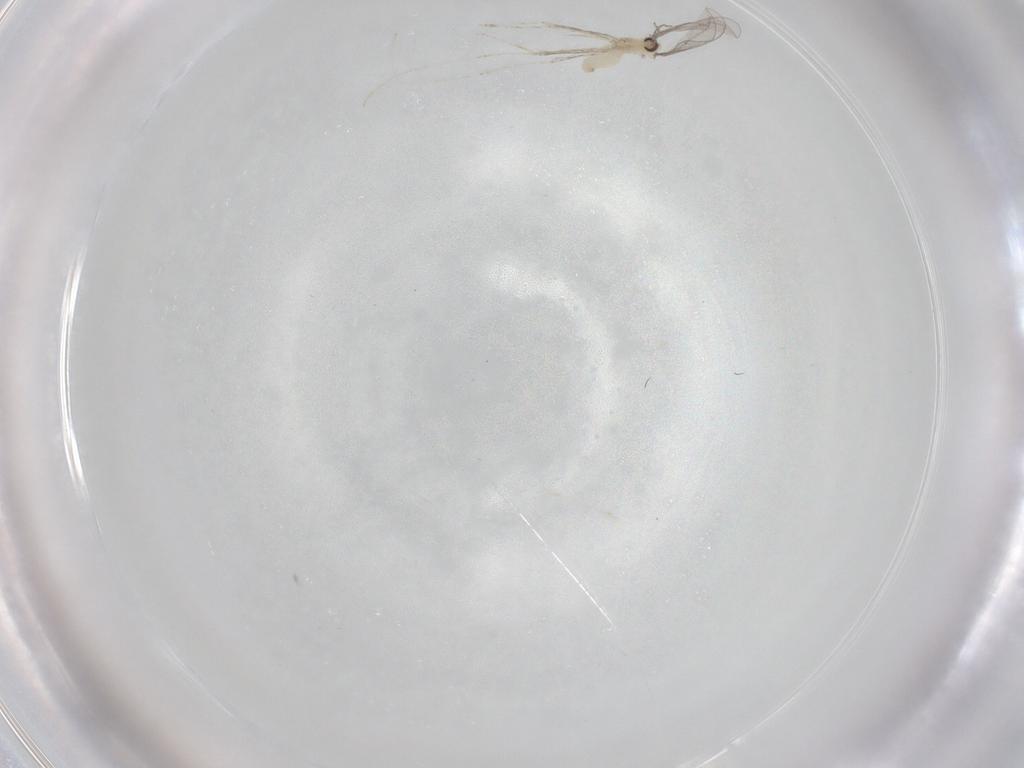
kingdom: Animalia
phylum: Arthropoda
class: Insecta
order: Diptera
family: Cecidomyiidae
